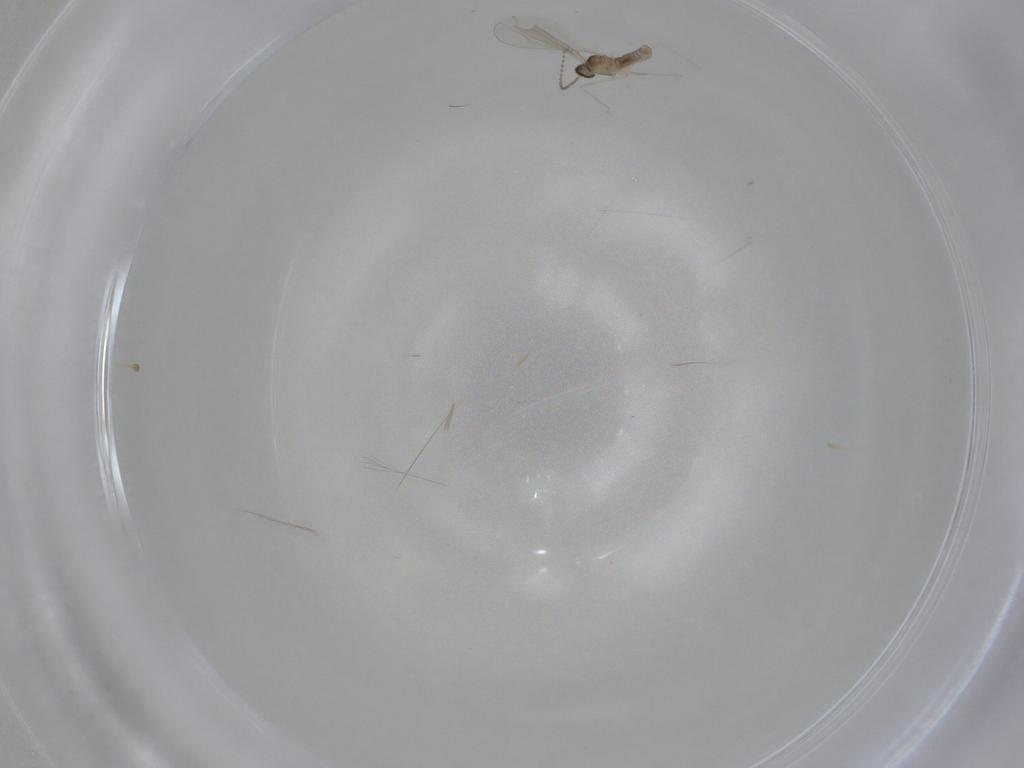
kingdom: Animalia
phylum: Arthropoda
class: Insecta
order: Diptera
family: Cecidomyiidae
